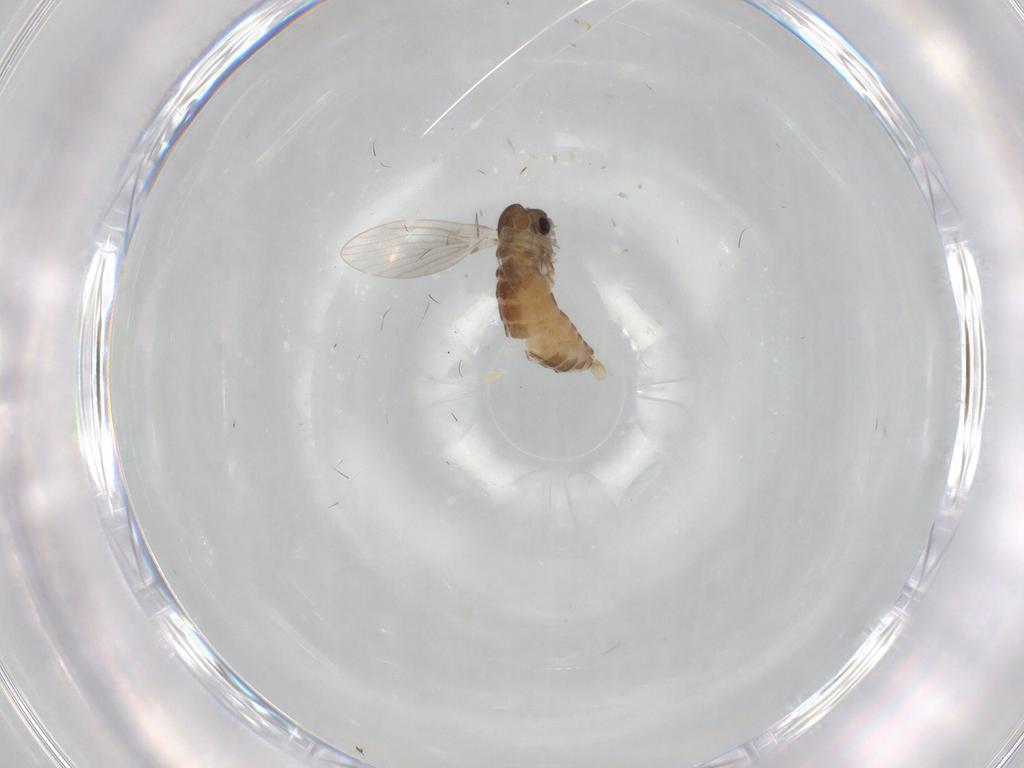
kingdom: Animalia
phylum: Arthropoda
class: Insecta
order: Diptera
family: Psychodidae
